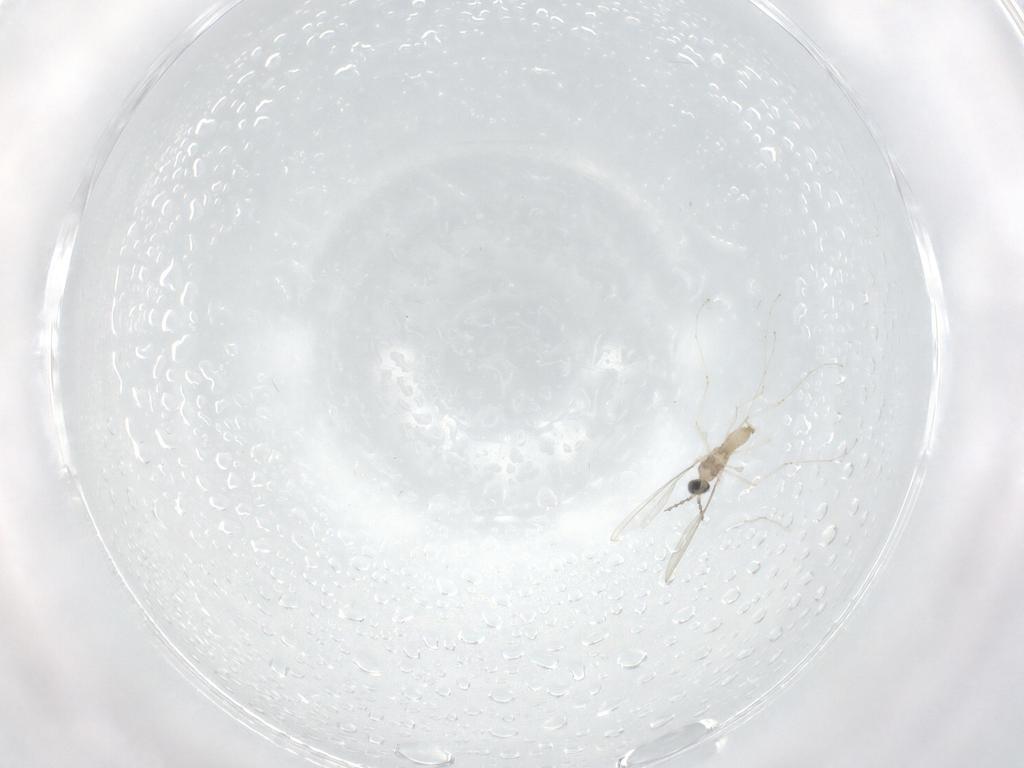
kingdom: Animalia
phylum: Arthropoda
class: Insecta
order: Diptera
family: Cecidomyiidae
